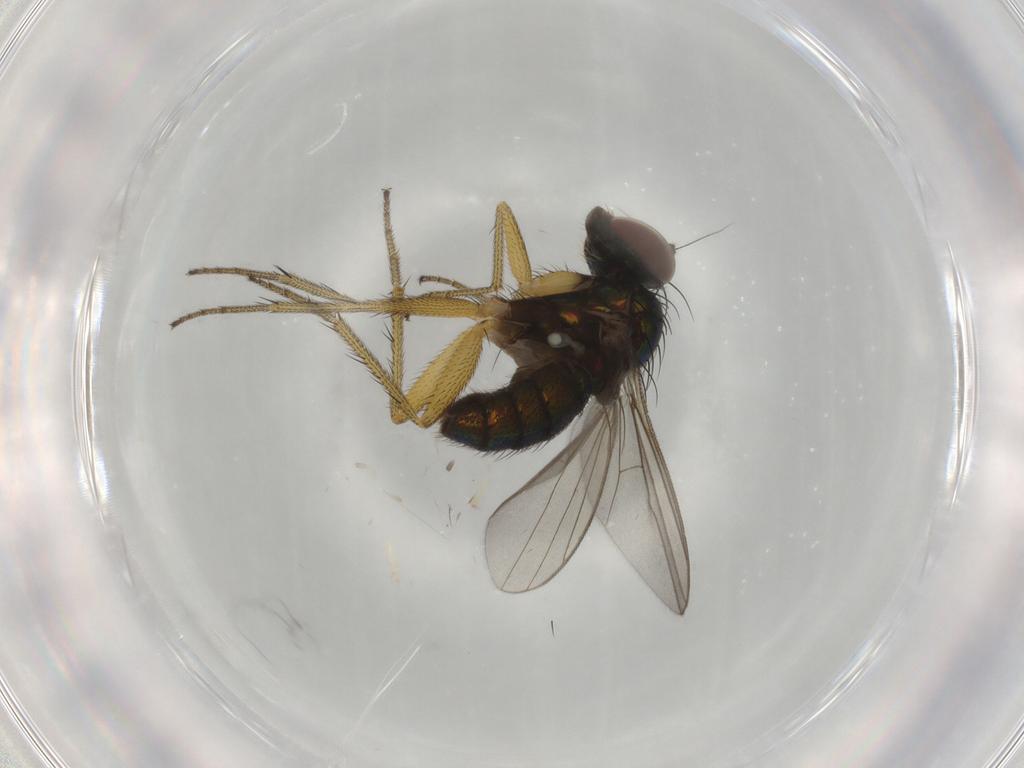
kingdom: Animalia
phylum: Arthropoda
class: Insecta
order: Diptera
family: Dolichopodidae
